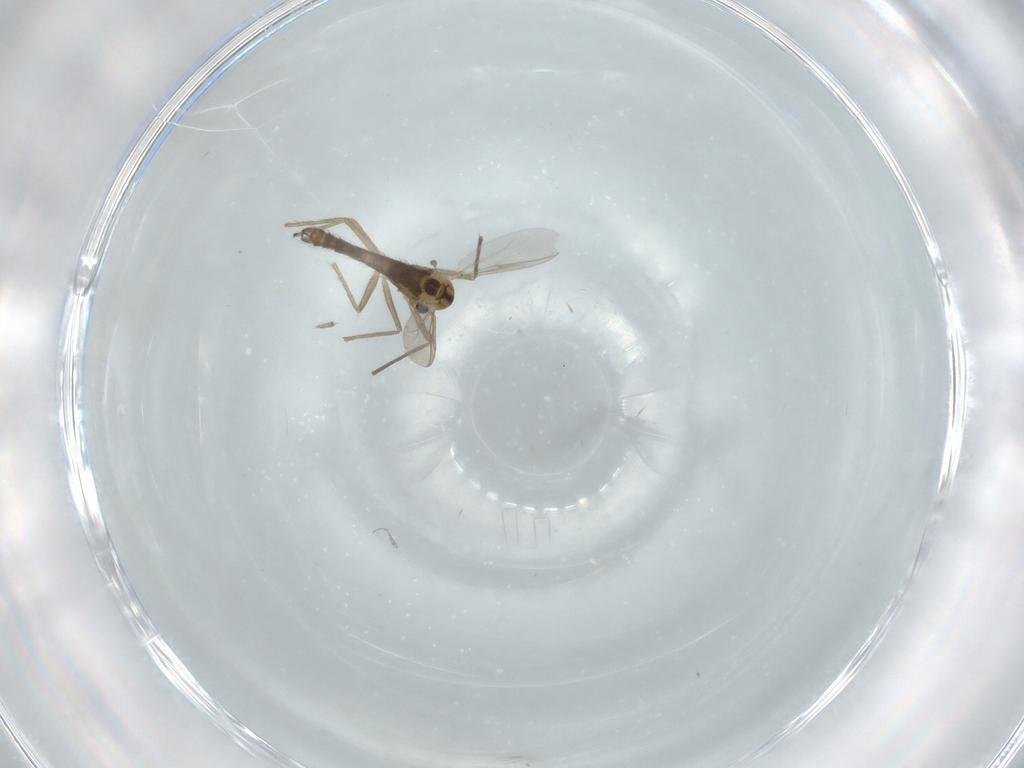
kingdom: Animalia
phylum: Arthropoda
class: Insecta
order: Diptera
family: Chironomidae
